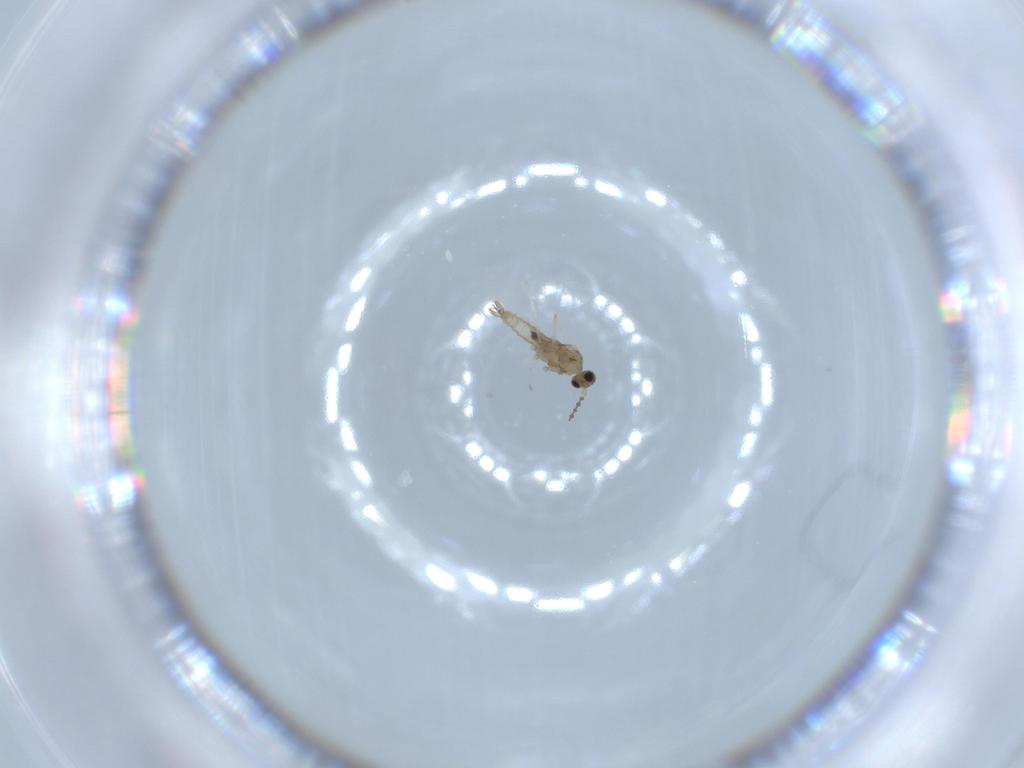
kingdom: Animalia
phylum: Arthropoda
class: Insecta
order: Diptera
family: Cecidomyiidae
